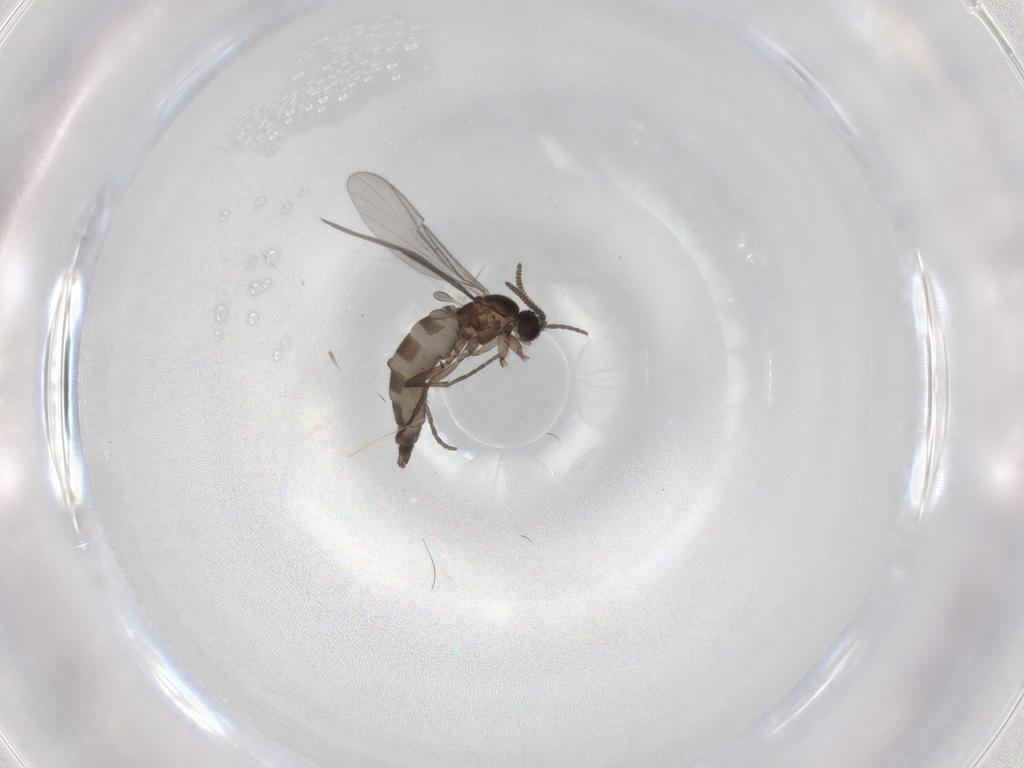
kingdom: Animalia
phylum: Arthropoda
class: Insecta
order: Diptera
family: Sciaridae
